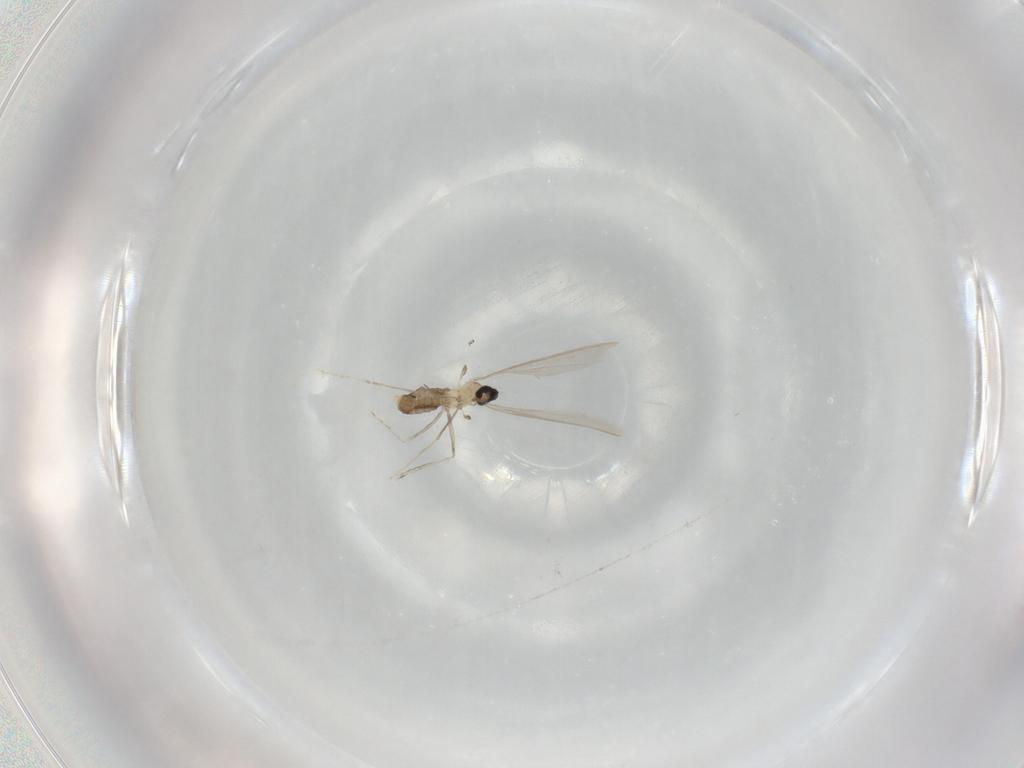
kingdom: Animalia
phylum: Arthropoda
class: Insecta
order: Diptera
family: Cecidomyiidae
